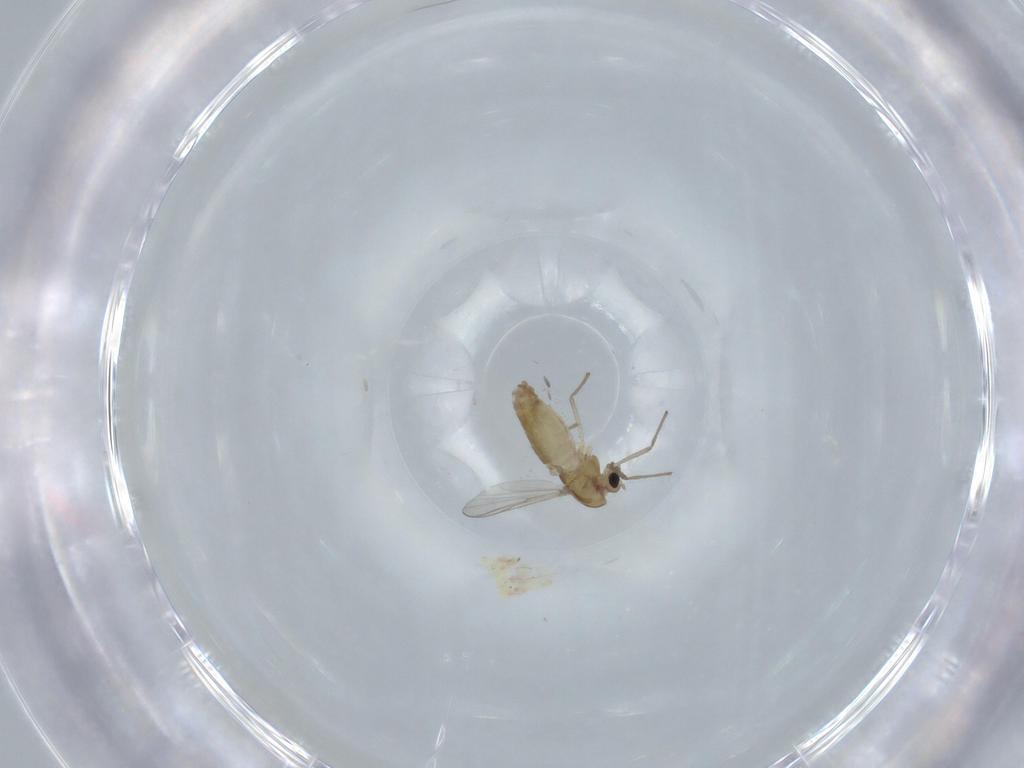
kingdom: Animalia
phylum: Arthropoda
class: Insecta
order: Diptera
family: Chironomidae
